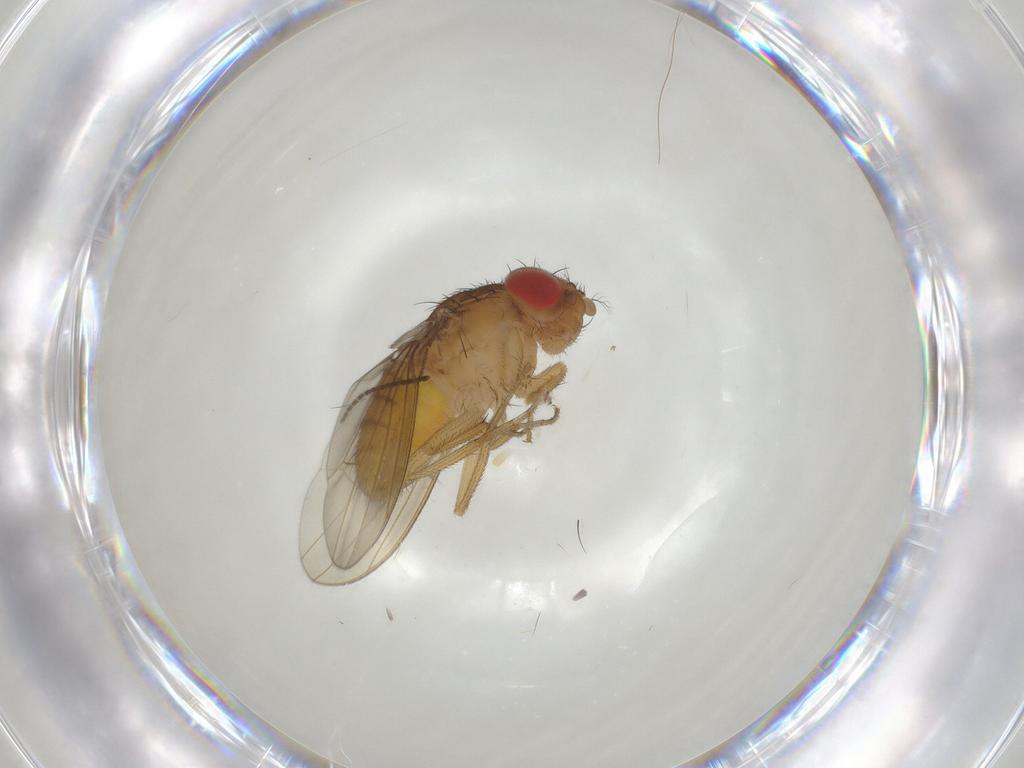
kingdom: Animalia
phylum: Arthropoda
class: Insecta
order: Diptera
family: Drosophilidae
